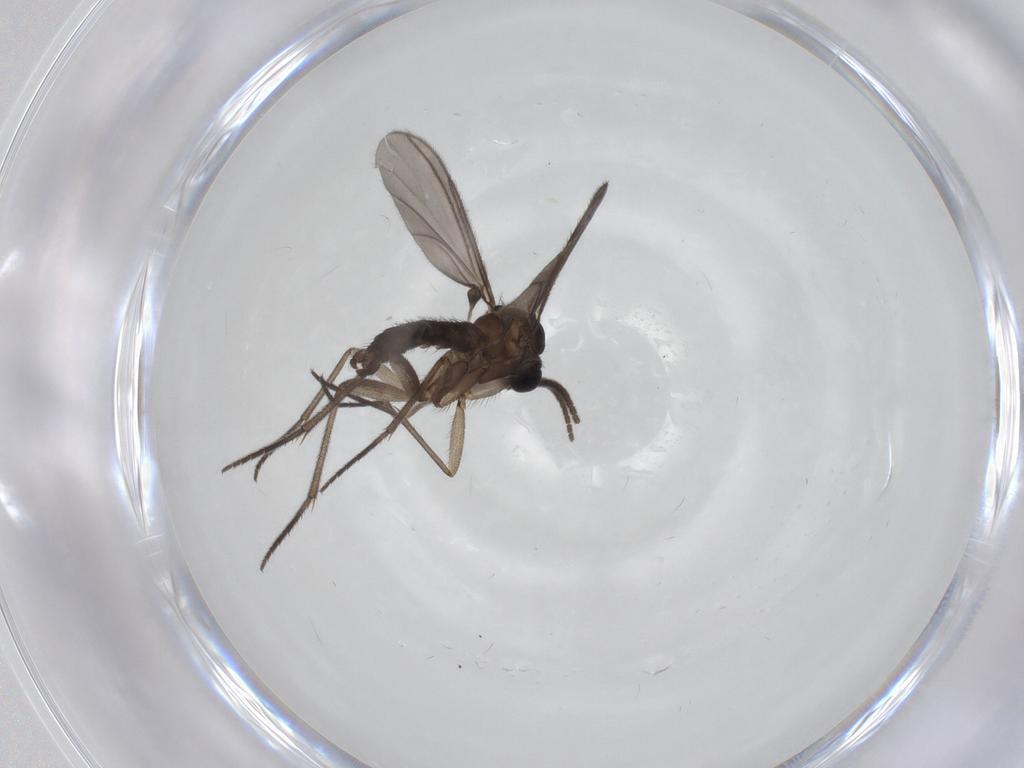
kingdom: Animalia
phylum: Arthropoda
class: Insecta
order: Diptera
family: Sciaridae
